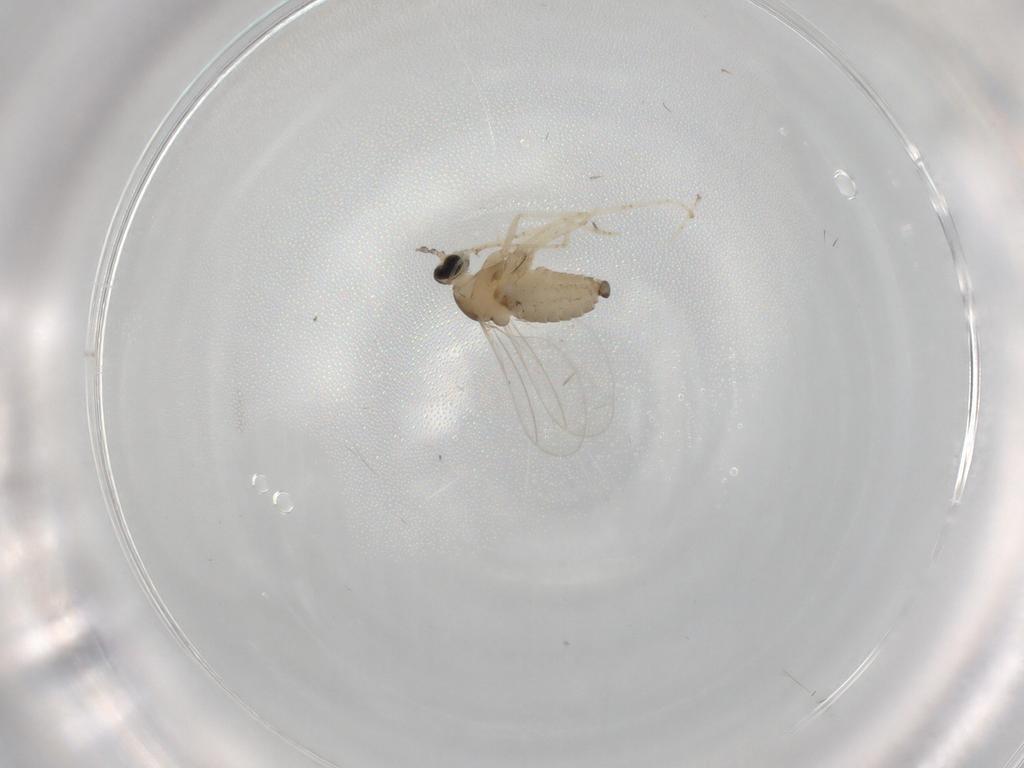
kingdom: Animalia
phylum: Arthropoda
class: Insecta
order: Diptera
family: Cecidomyiidae
